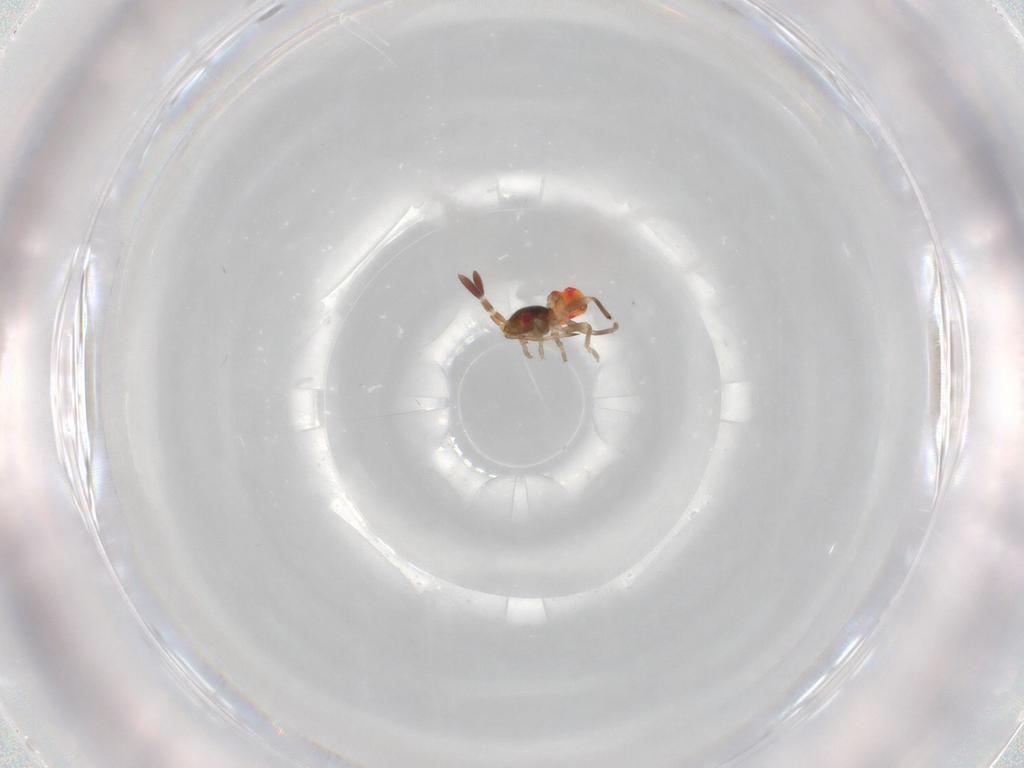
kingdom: Animalia
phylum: Arthropoda
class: Insecta
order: Hemiptera
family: Rhyparochromidae
